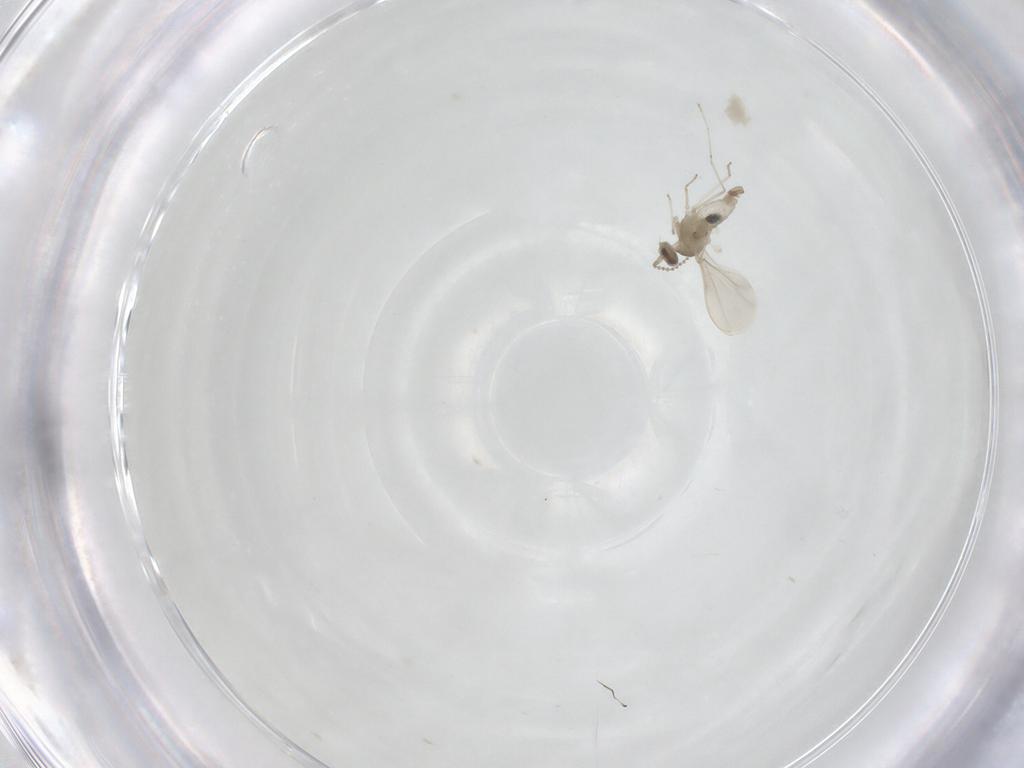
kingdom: Animalia
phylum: Arthropoda
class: Insecta
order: Diptera
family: Cecidomyiidae
